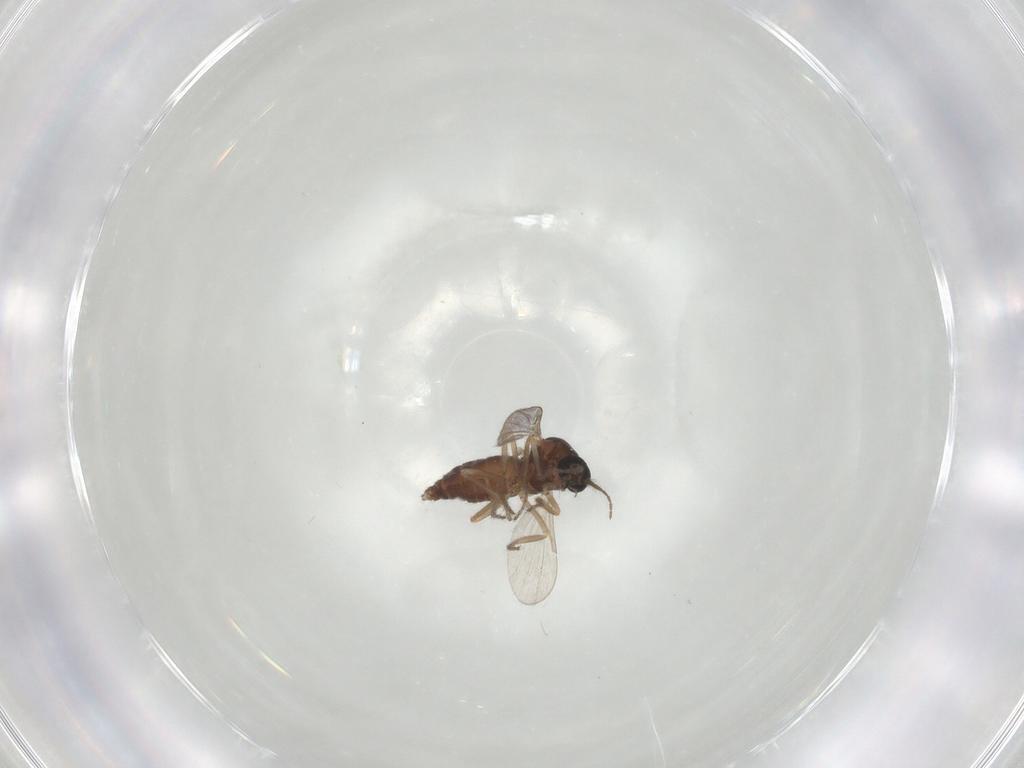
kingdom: Animalia
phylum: Arthropoda
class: Insecta
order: Diptera
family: Ceratopogonidae
